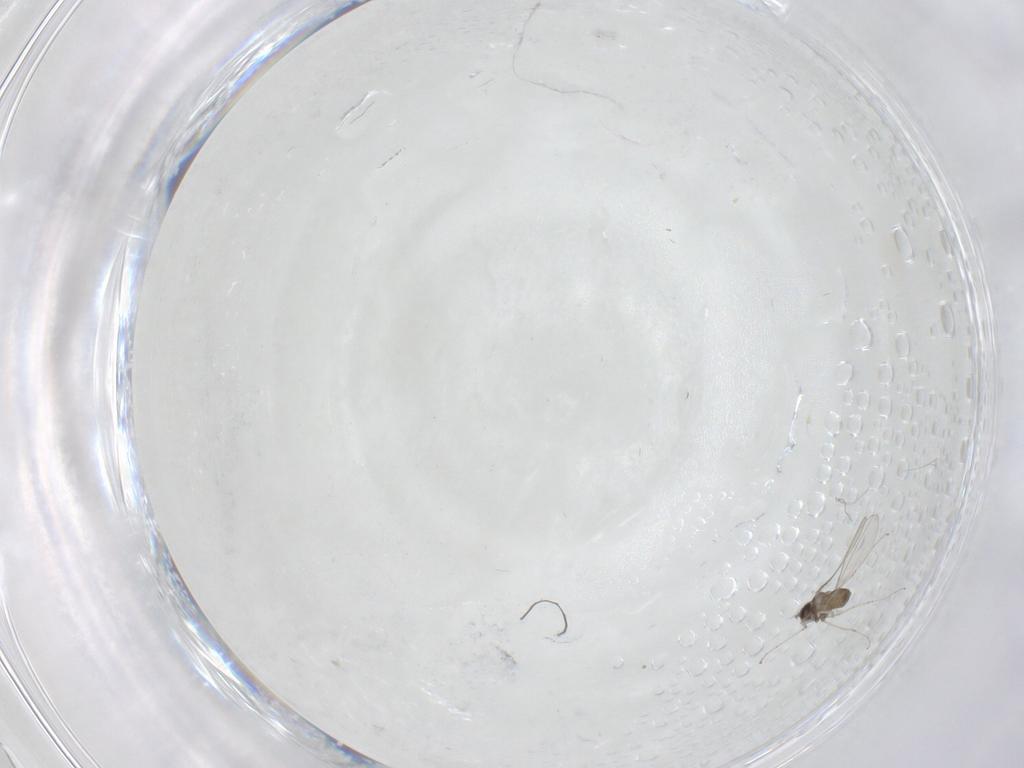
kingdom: Animalia
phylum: Arthropoda
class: Insecta
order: Diptera
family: Cecidomyiidae
